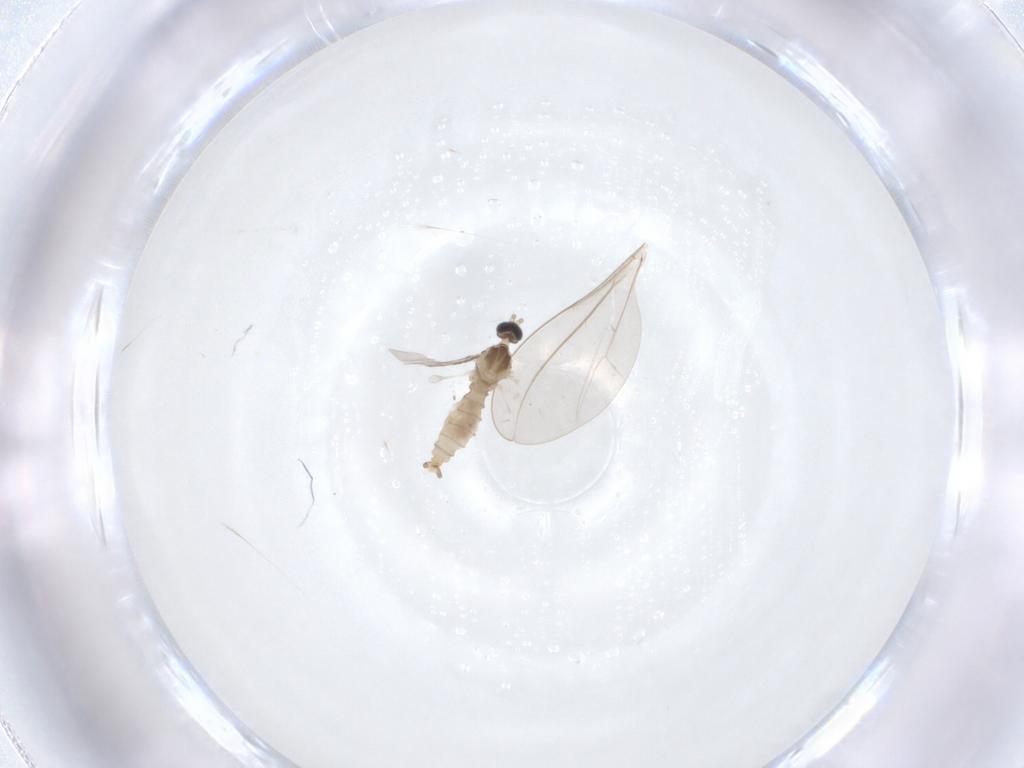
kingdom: Animalia
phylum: Arthropoda
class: Insecta
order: Diptera
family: Cecidomyiidae
